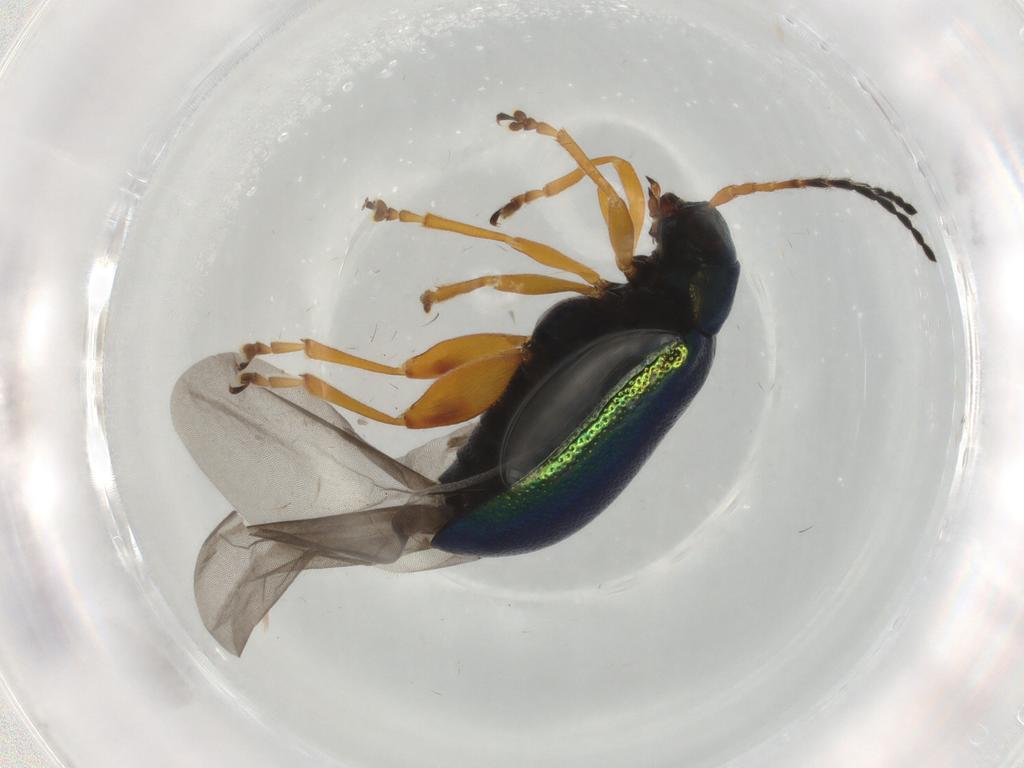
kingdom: Animalia
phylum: Arthropoda
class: Insecta
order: Coleoptera
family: Chrysomelidae
